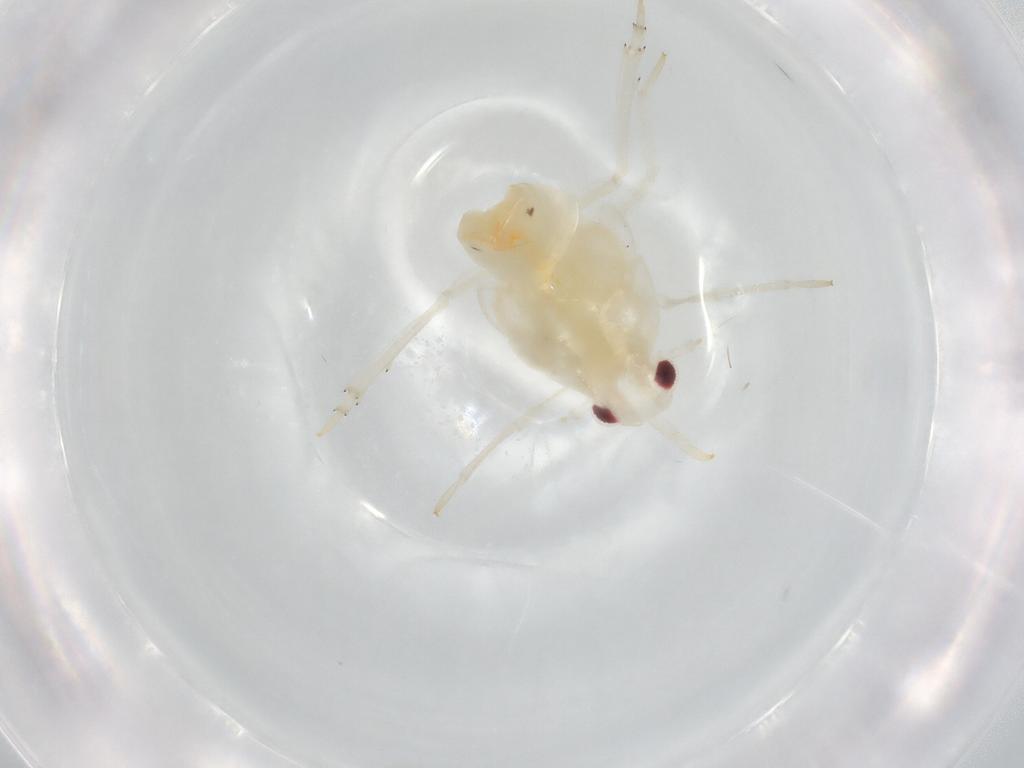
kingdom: Animalia
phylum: Arthropoda
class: Insecta
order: Hemiptera
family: Flatidae
